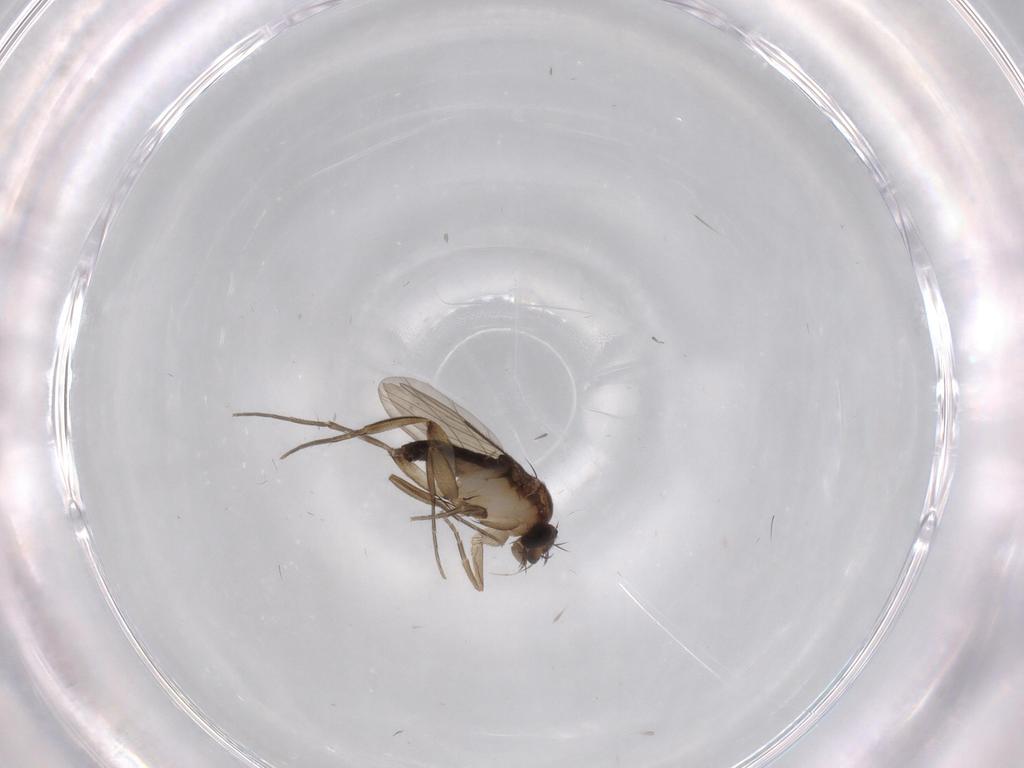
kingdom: Animalia
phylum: Arthropoda
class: Insecta
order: Diptera
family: Phoridae
